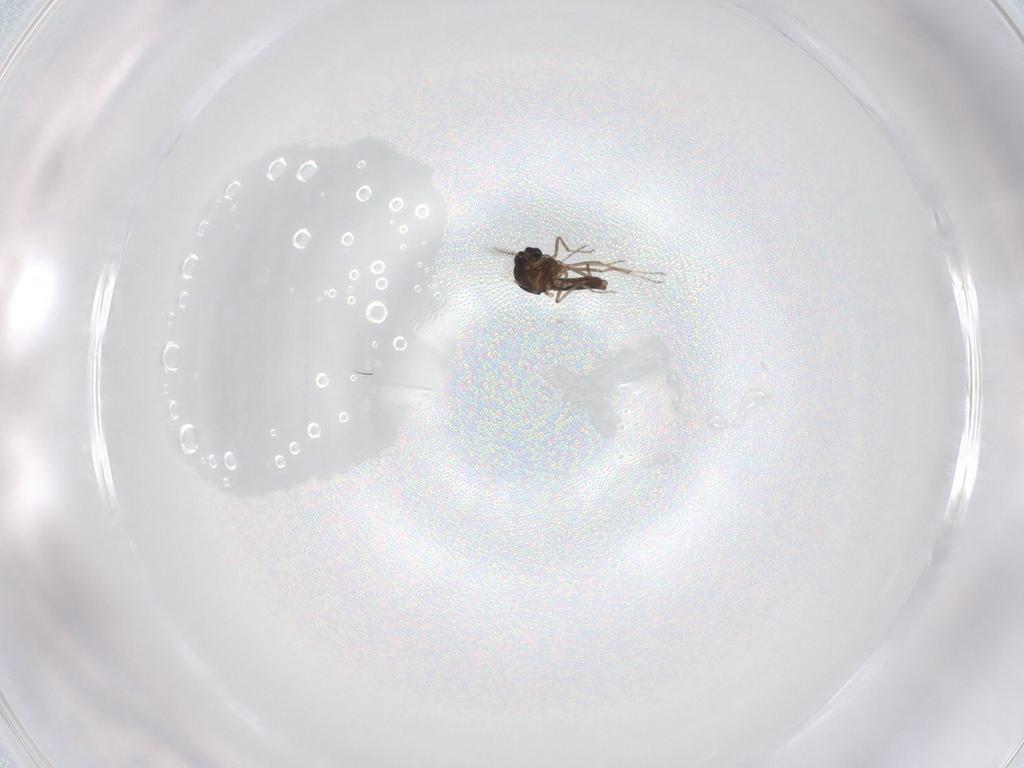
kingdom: Animalia
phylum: Arthropoda
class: Insecta
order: Diptera
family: Ceratopogonidae
